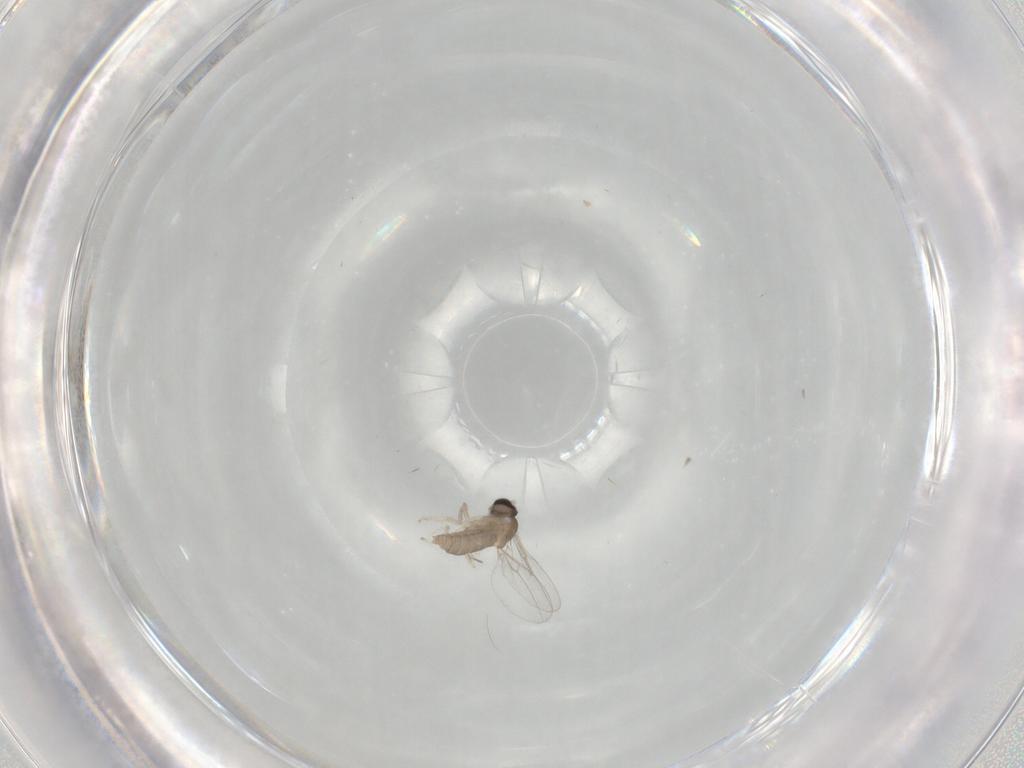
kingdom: Animalia
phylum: Arthropoda
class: Insecta
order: Diptera
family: Cecidomyiidae
